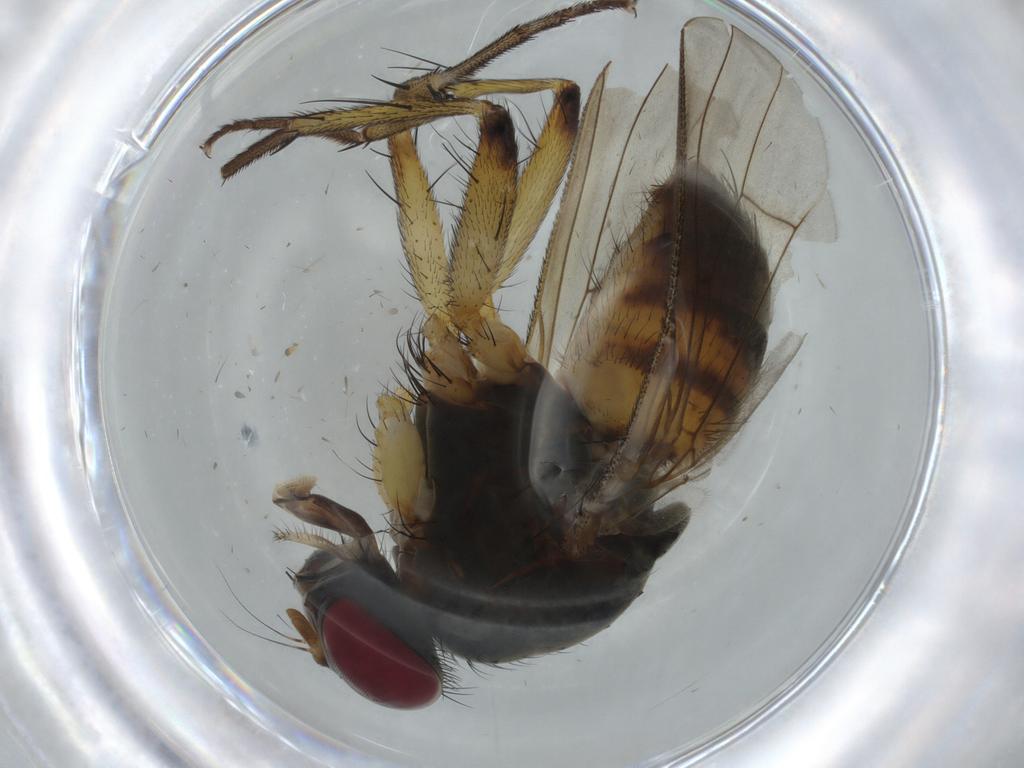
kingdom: Animalia
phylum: Arthropoda
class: Insecta
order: Diptera
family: Muscidae
